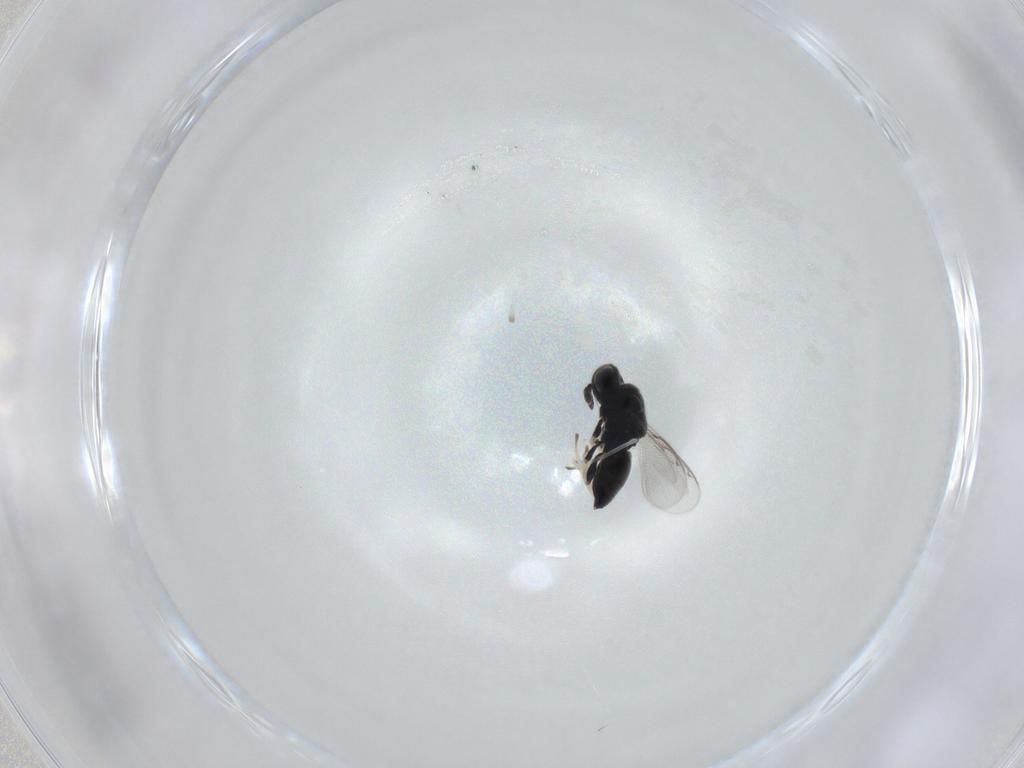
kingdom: Animalia
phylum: Arthropoda
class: Insecta
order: Hymenoptera
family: Herbertiidae
